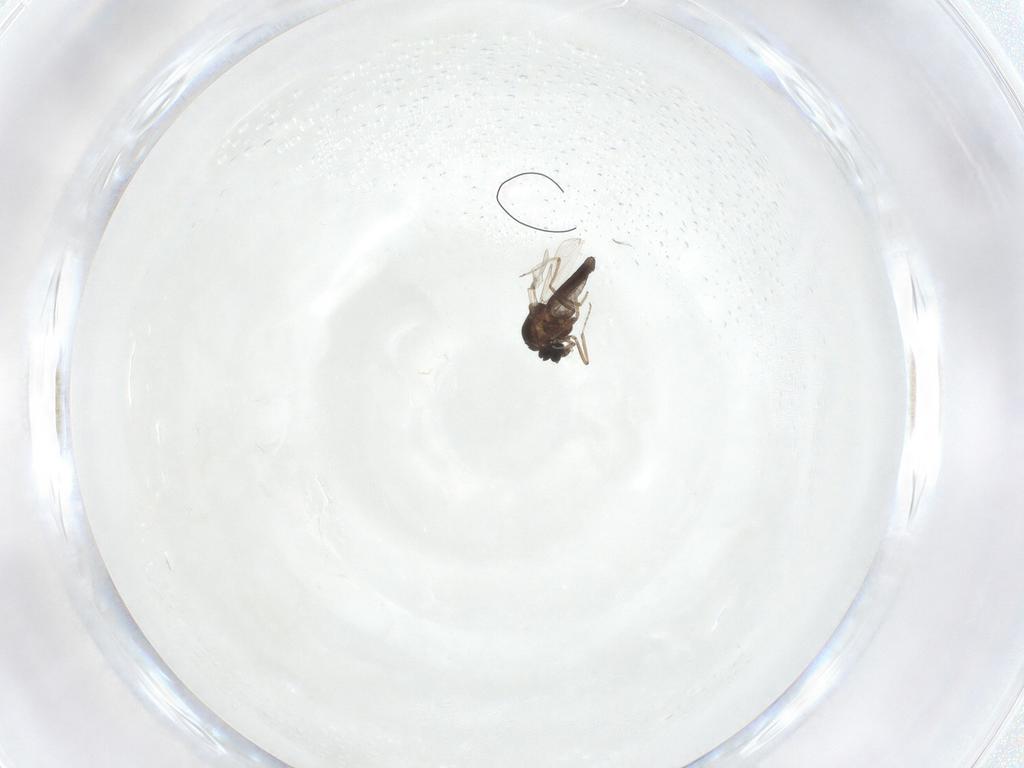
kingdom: Animalia
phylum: Arthropoda
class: Insecta
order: Diptera
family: Ceratopogonidae
